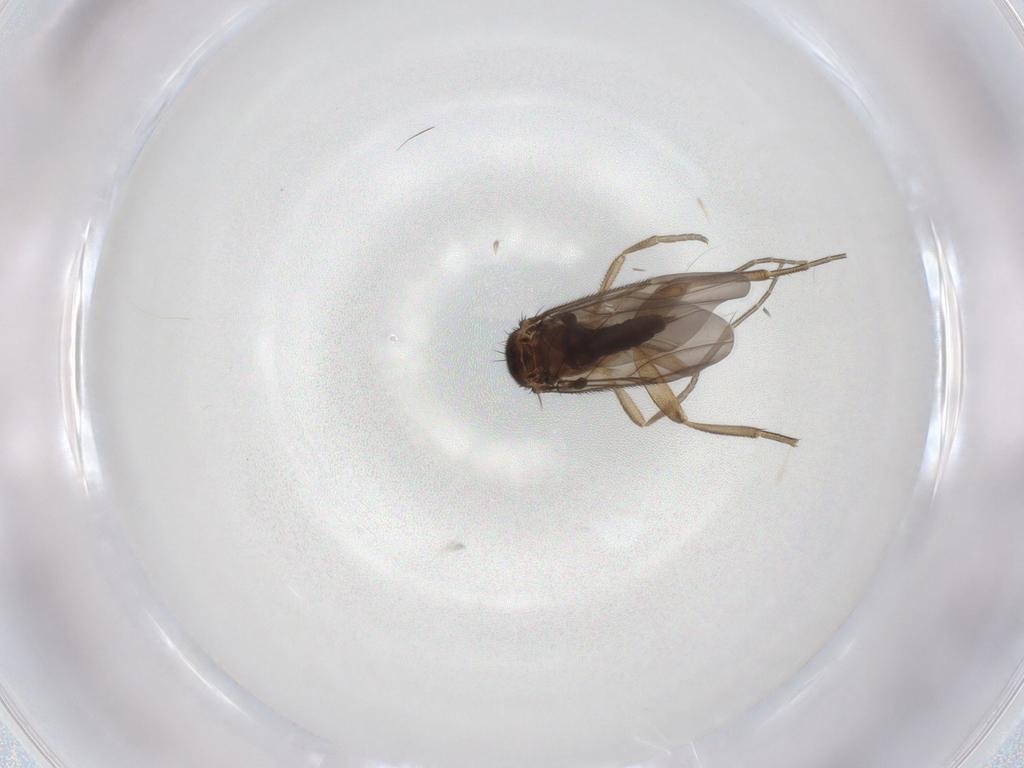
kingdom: Animalia
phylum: Arthropoda
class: Insecta
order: Diptera
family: Phoridae
